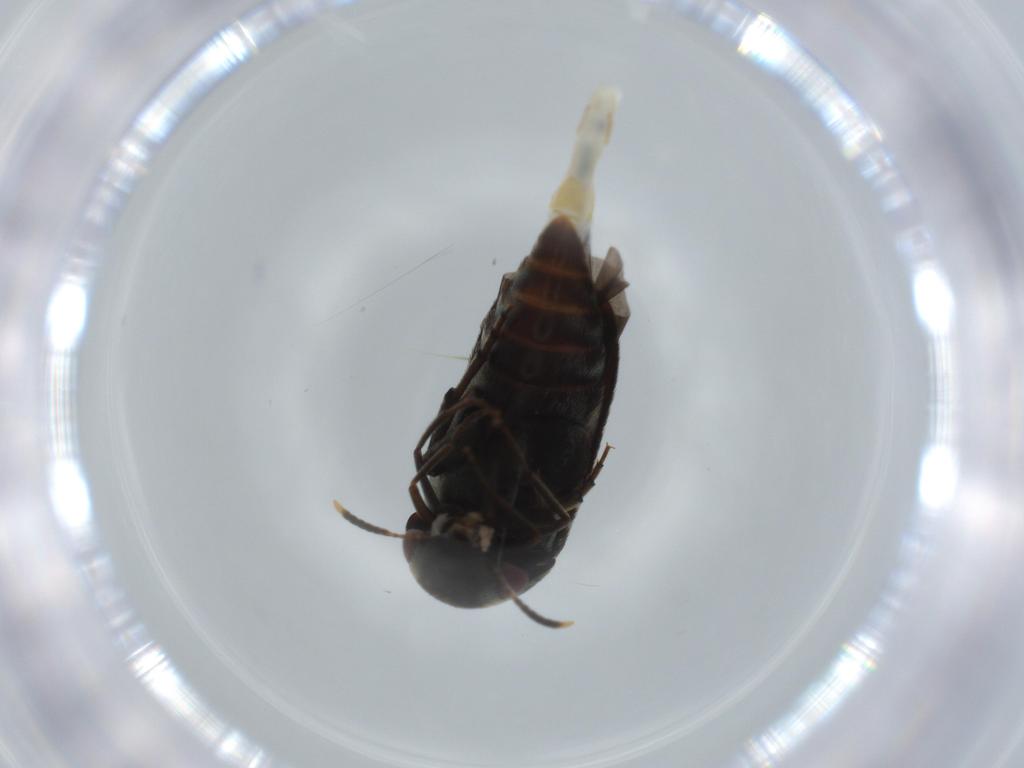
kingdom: Animalia
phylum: Arthropoda
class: Insecta
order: Coleoptera
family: Mordellidae
